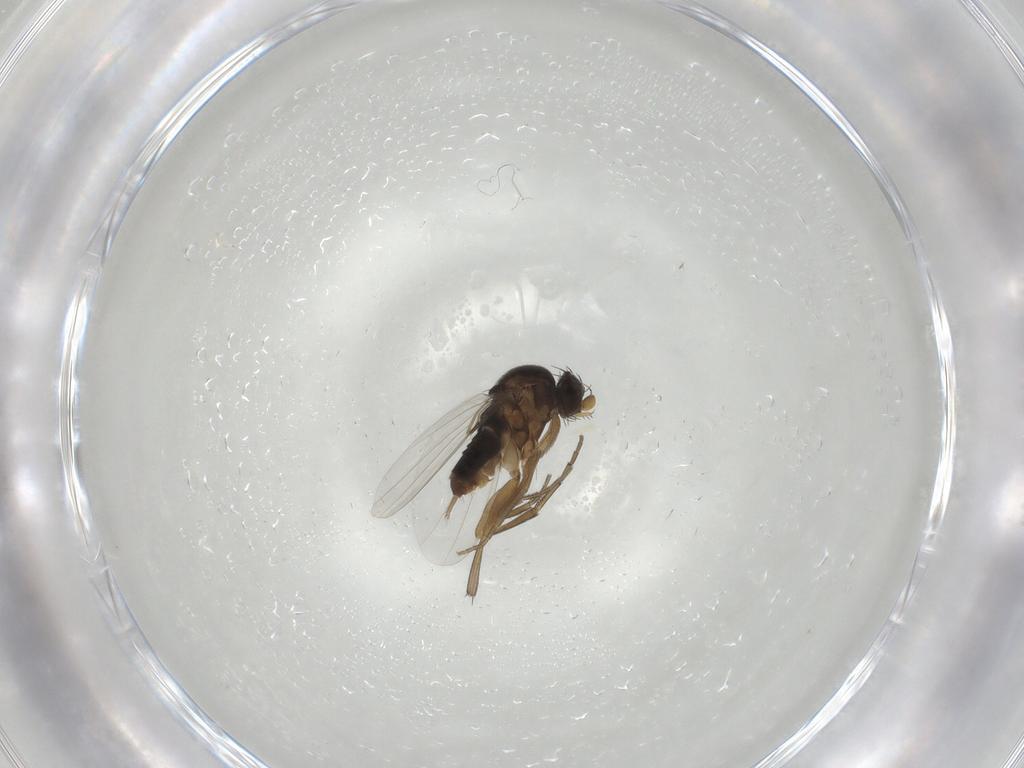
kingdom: Animalia
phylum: Arthropoda
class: Insecta
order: Diptera
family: Phoridae
